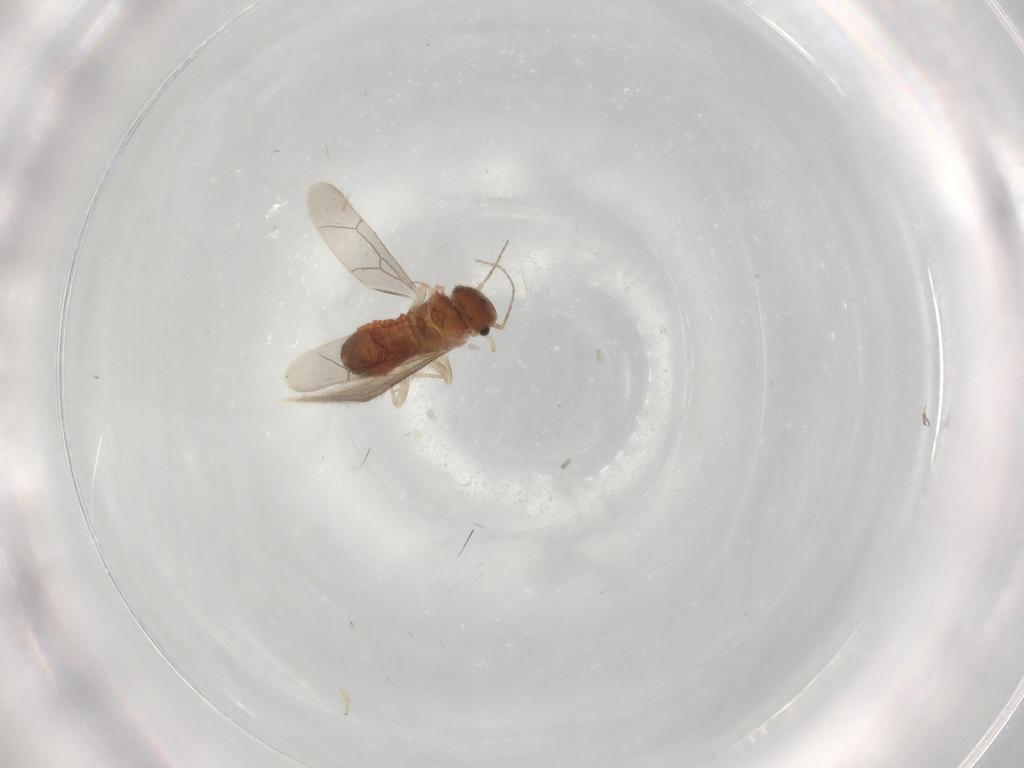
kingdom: Animalia
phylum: Arthropoda
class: Insecta
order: Psocodea
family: Archipsocidae
